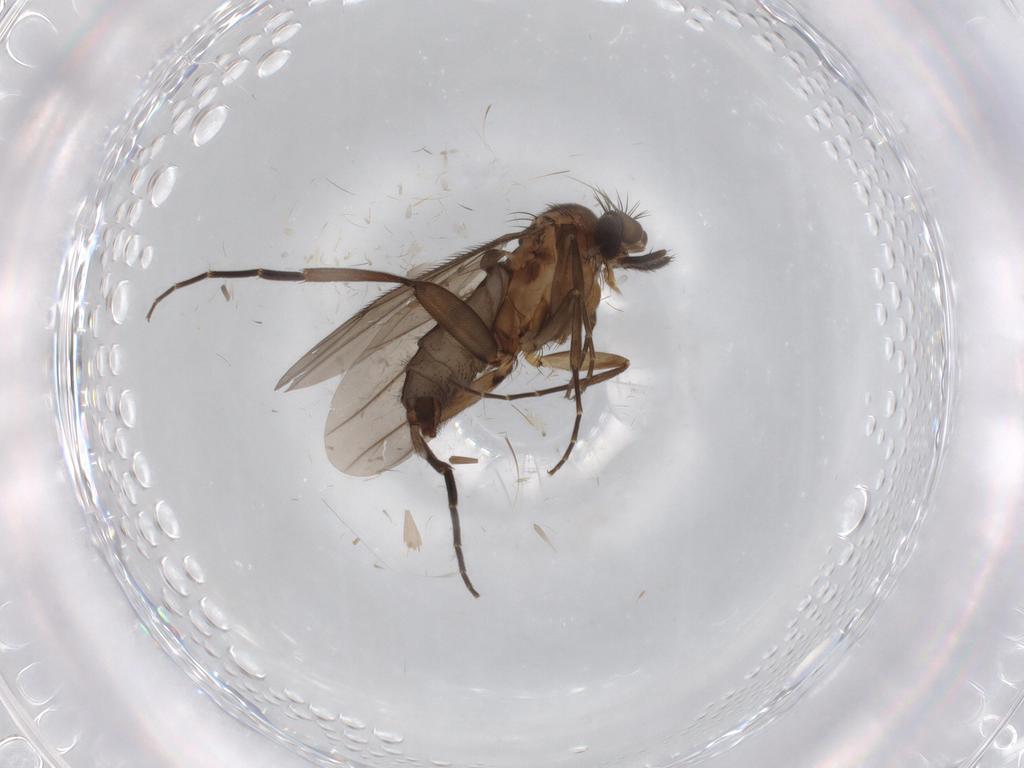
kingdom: Animalia
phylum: Arthropoda
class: Insecta
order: Diptera
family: Phoridae
